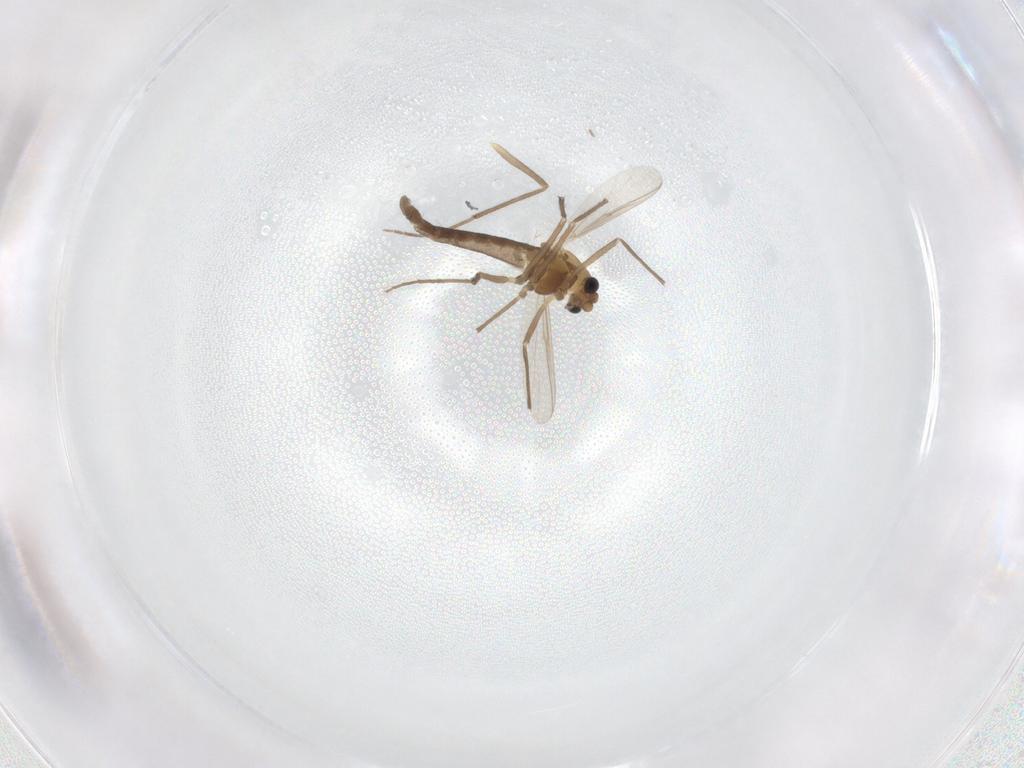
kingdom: Animalia
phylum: Arthropoda
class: Insecta
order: Diptera
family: Chironomidae
